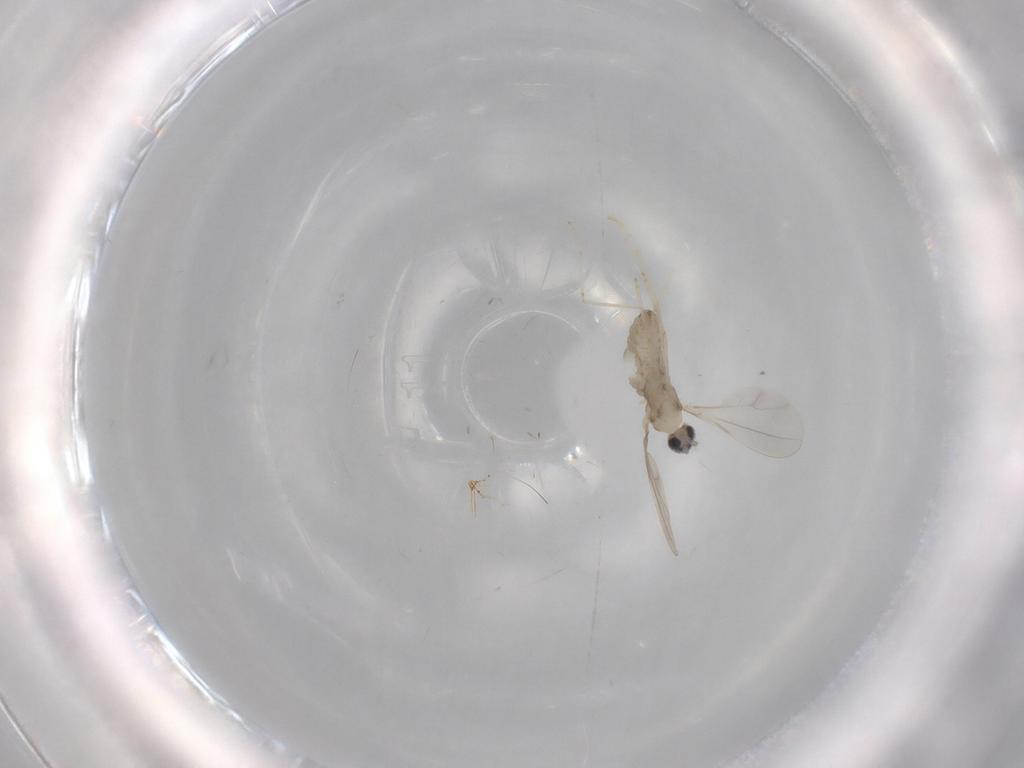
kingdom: Animalia
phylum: Arthropoda
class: Insecta
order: Diptera
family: Cecidomyiidae
